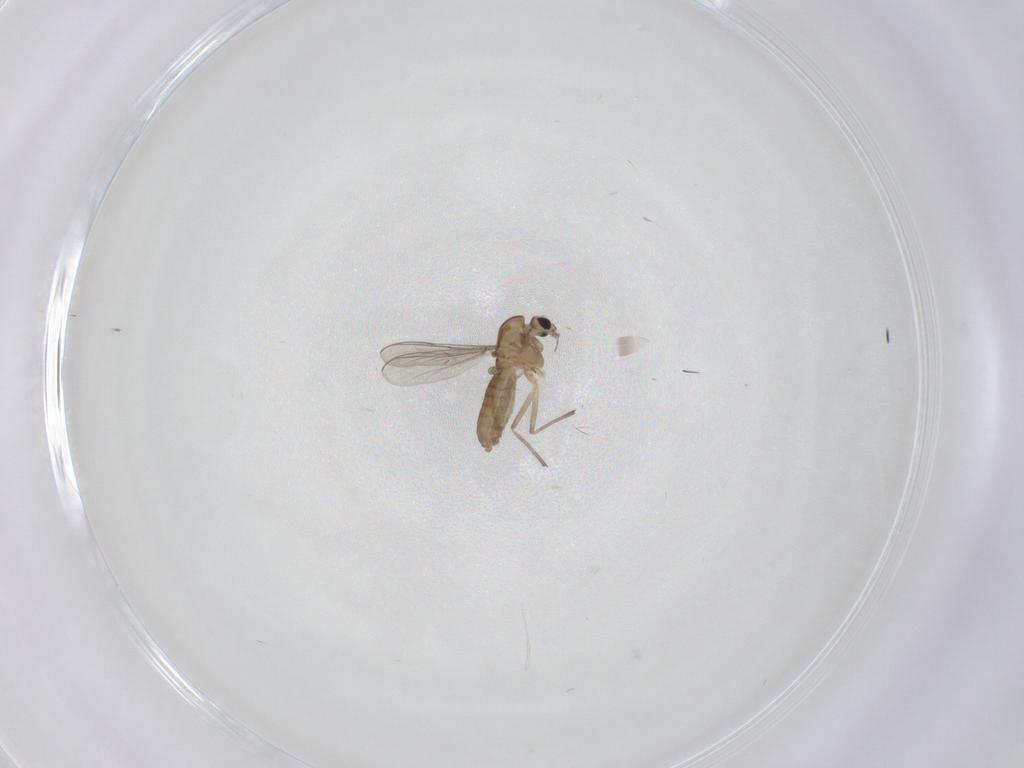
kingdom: Animalia
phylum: Arthropoda
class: Insecta
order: Diptera
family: Chironomidae
